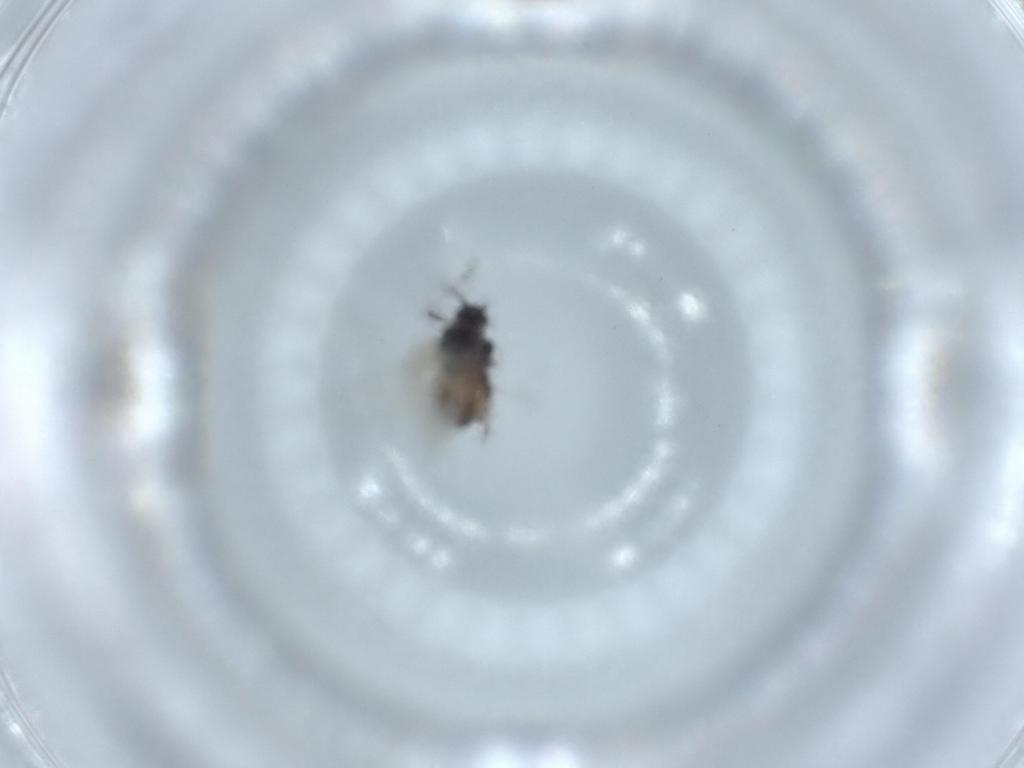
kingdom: Animalia
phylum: Arthropoda
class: Insecta
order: Hemiptera
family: Aphididae
